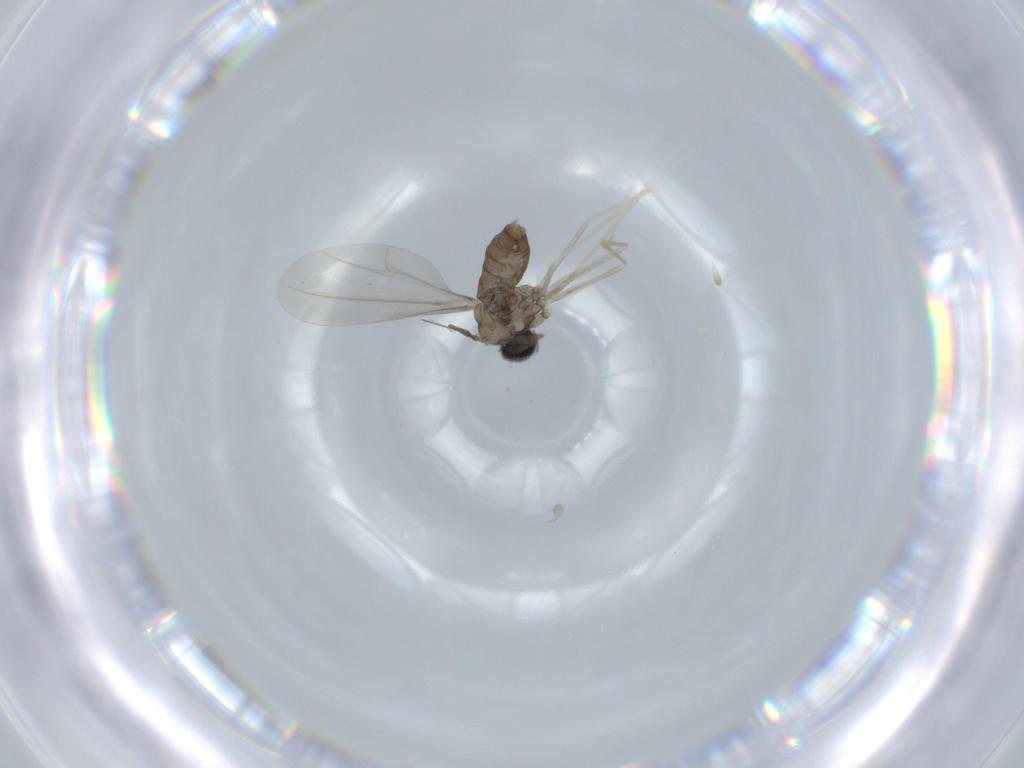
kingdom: Animalia
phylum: Arthropoda
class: Insecta
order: Diptera
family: Cecidomyiidae
